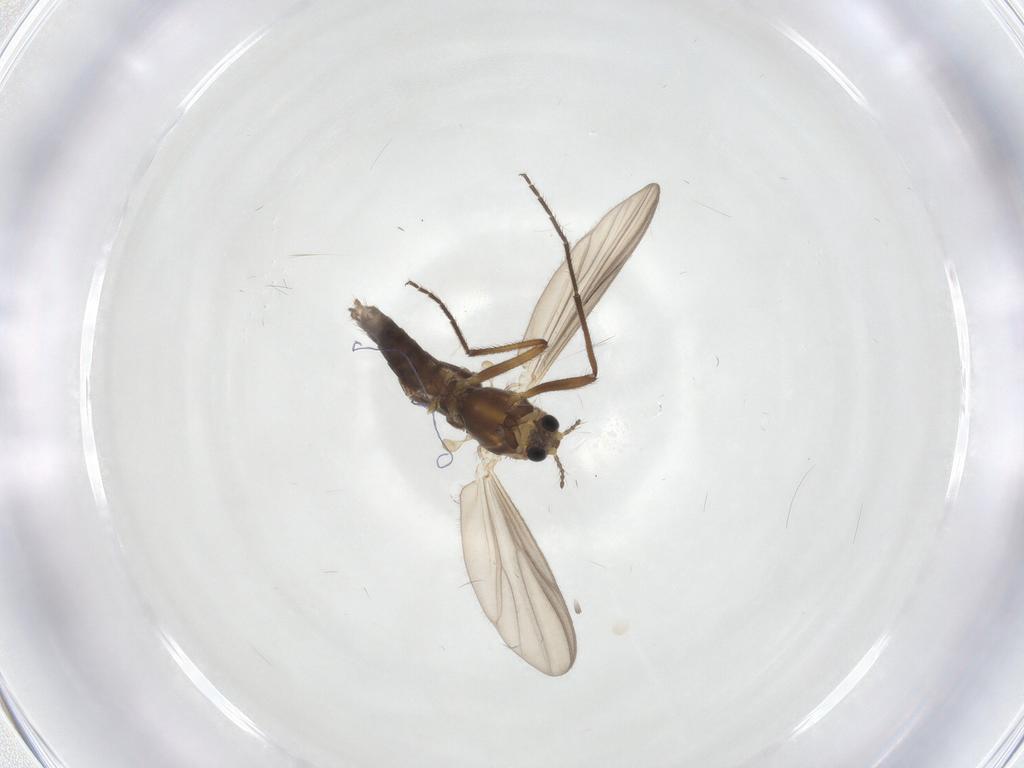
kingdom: Animalia
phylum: Arthropoda
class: Insecta
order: Diptera
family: Chironomidae
